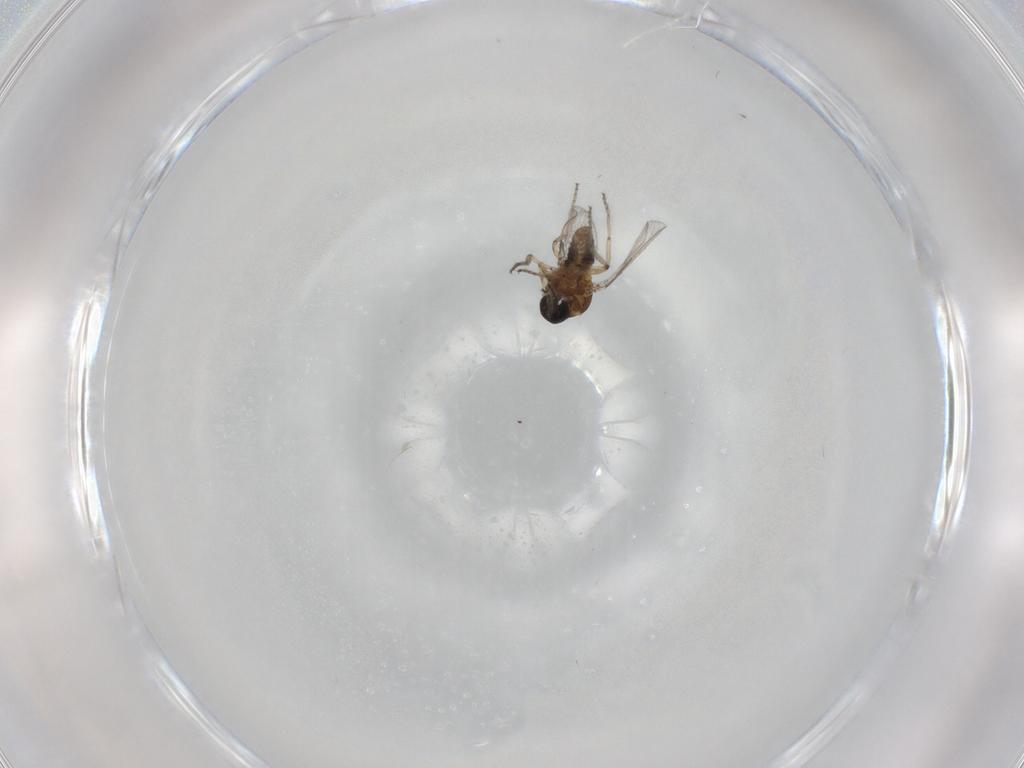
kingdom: Animalia
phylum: Arthropoda
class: Insecta
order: Diptera
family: Ceratopogonidae
